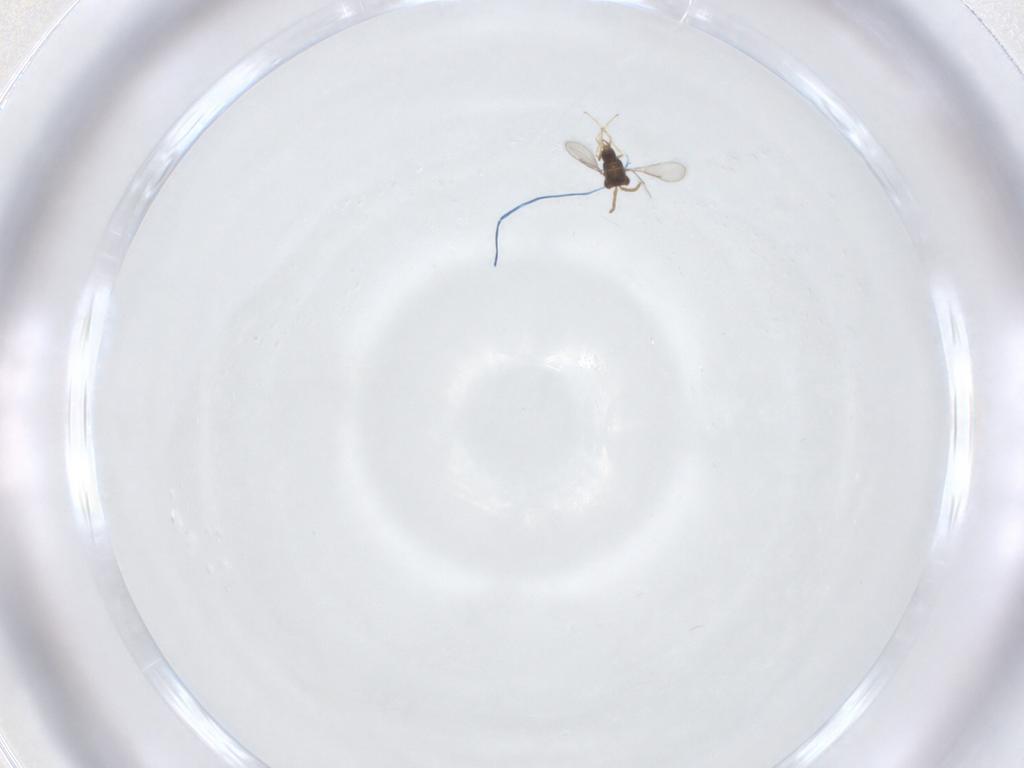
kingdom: Animalia
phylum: Arthropoda
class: Insecta
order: Hymenoptera
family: Aphelinidae
